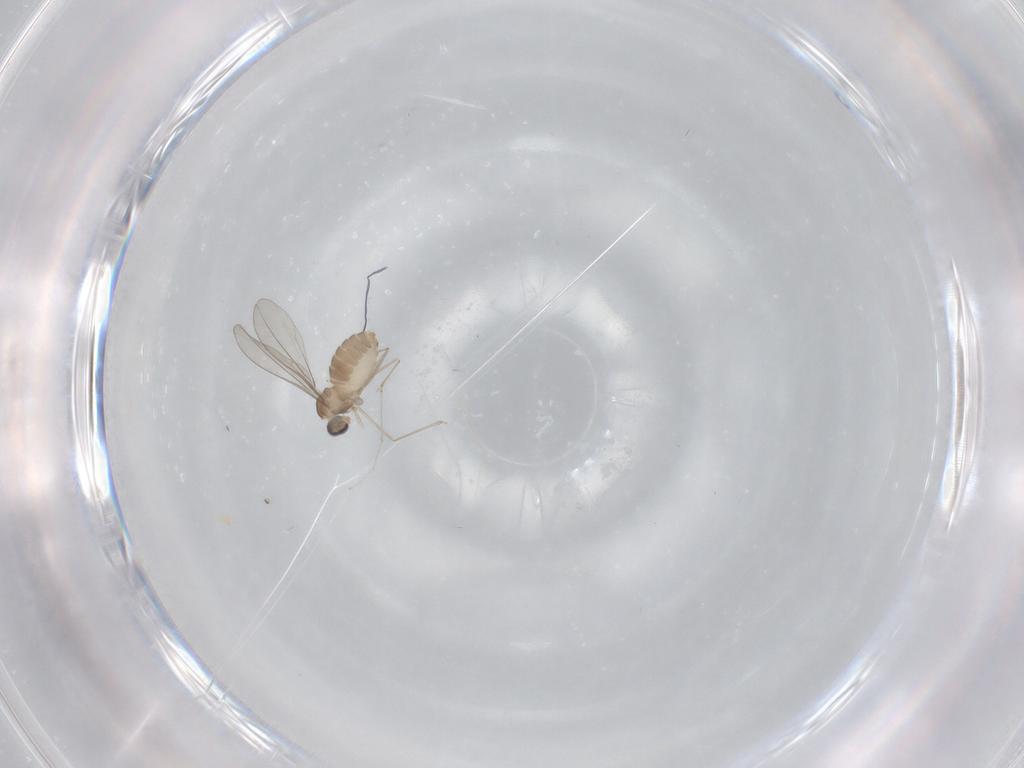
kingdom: Animalia
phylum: Arthropoda
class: Insecta
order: Diptera
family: Cecidomyiidae
